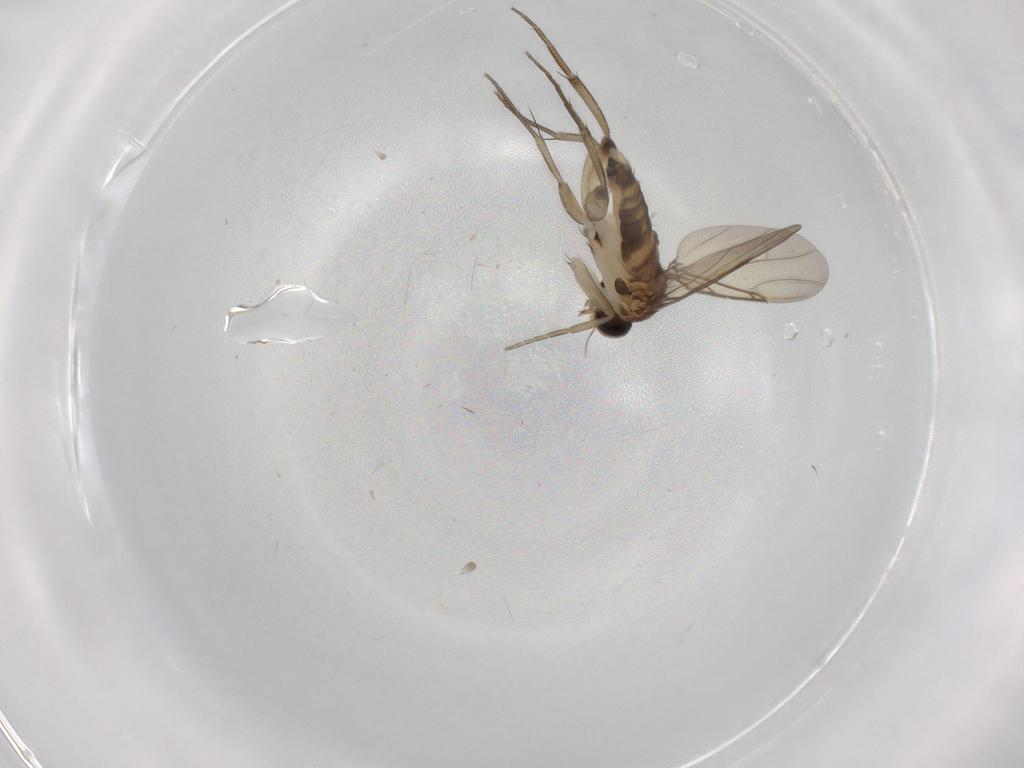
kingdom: Animalia
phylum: Arthropoda
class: Insecta
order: Diptera
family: Phoridae
